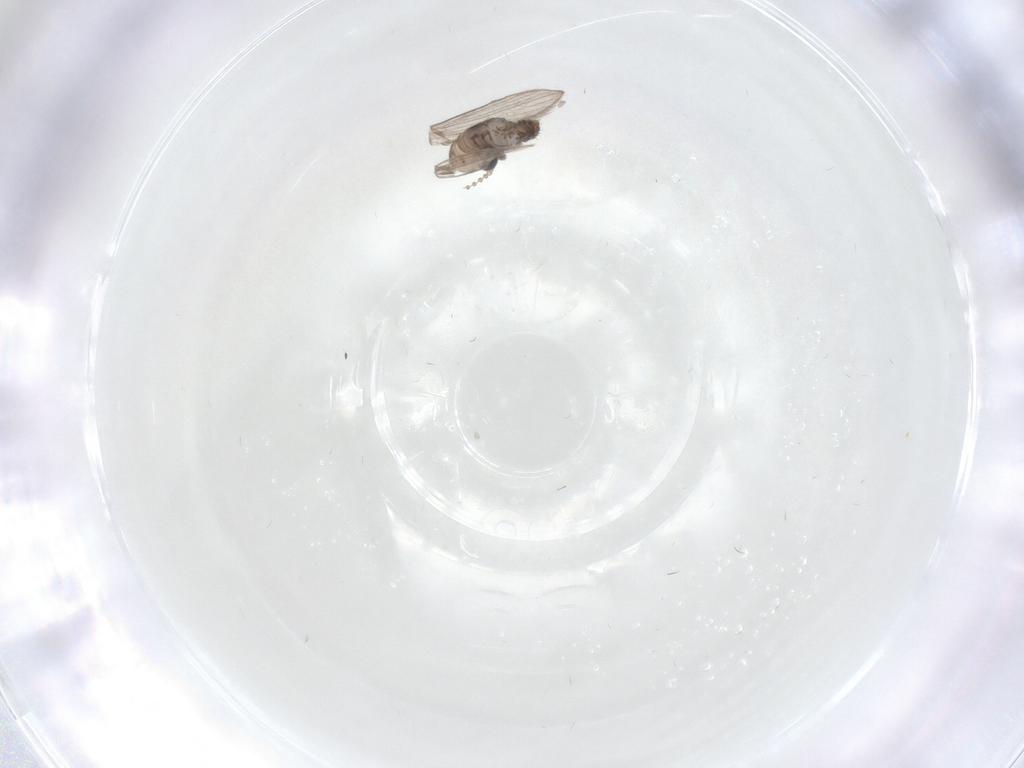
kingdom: Animalia
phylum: Arthropoda
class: Insecta
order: Diptera
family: Psychodidae
